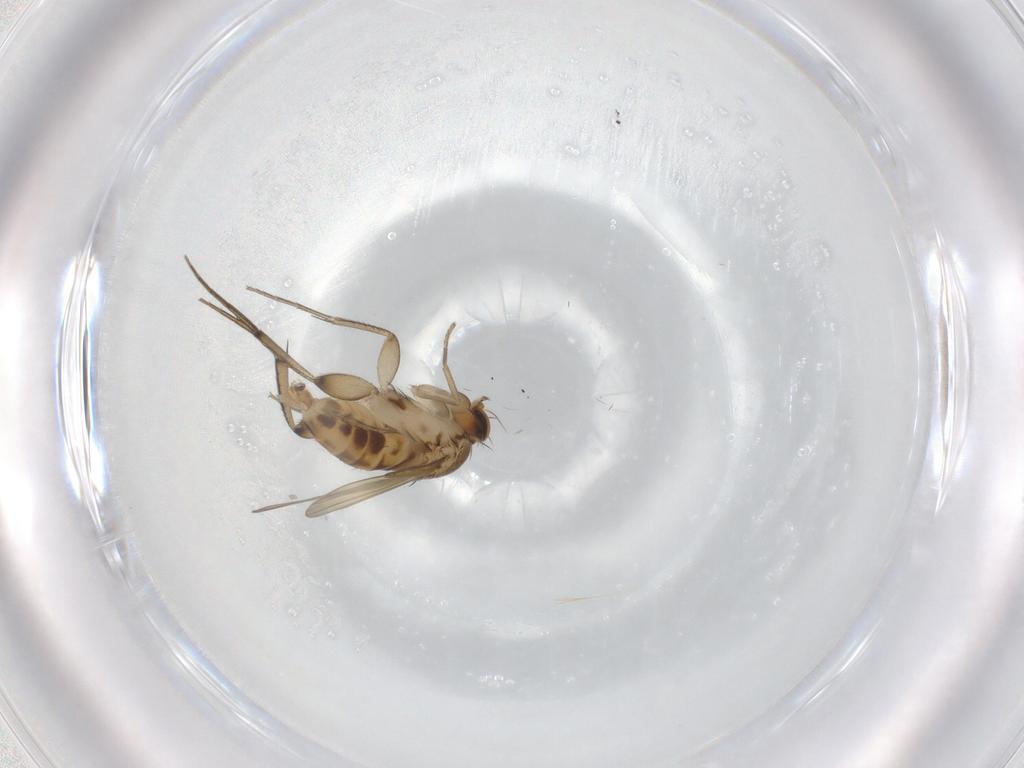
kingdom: Animalia
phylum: Arthropoda
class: Insecta
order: Diptera
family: Phoridae
